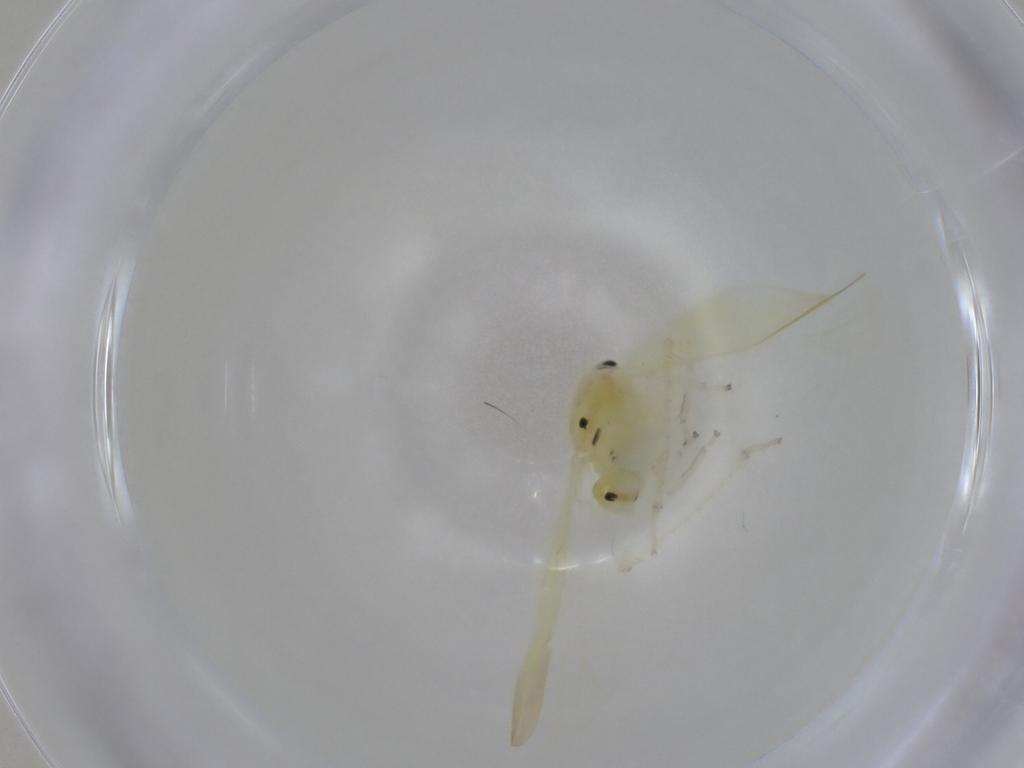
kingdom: Animalia
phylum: Arthropoda
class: Insecta
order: Hemiptera
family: Cicadellidae
